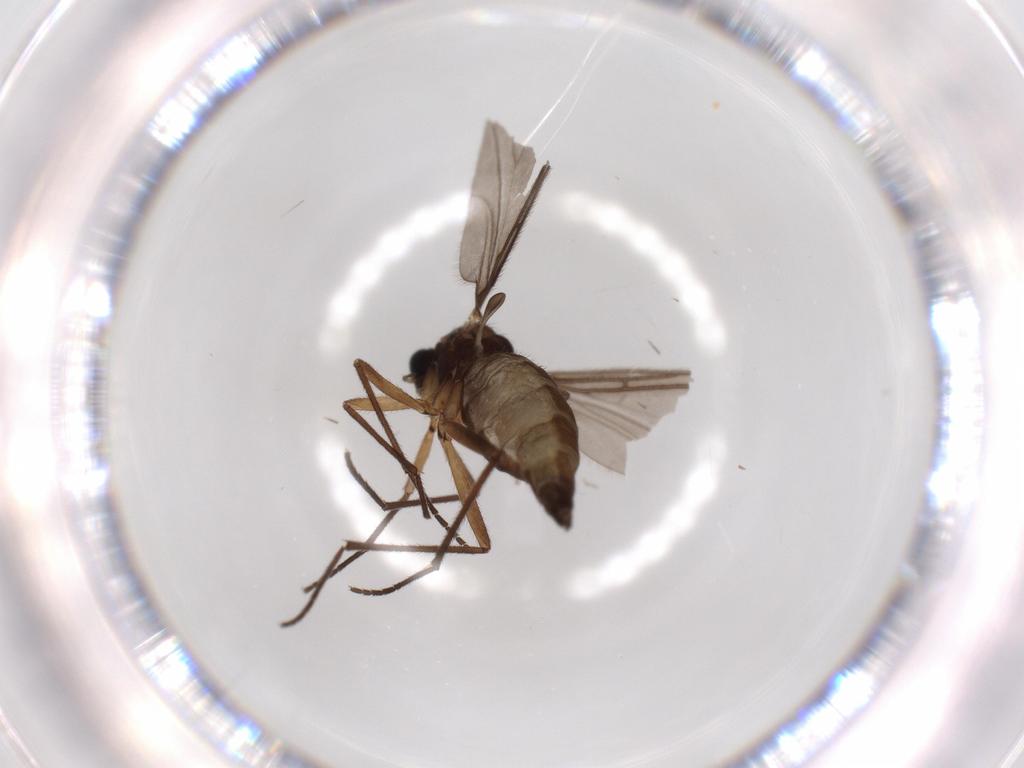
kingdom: Animalia
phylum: Arthropoda
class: Insecta
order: Diptera
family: Sciaridae
